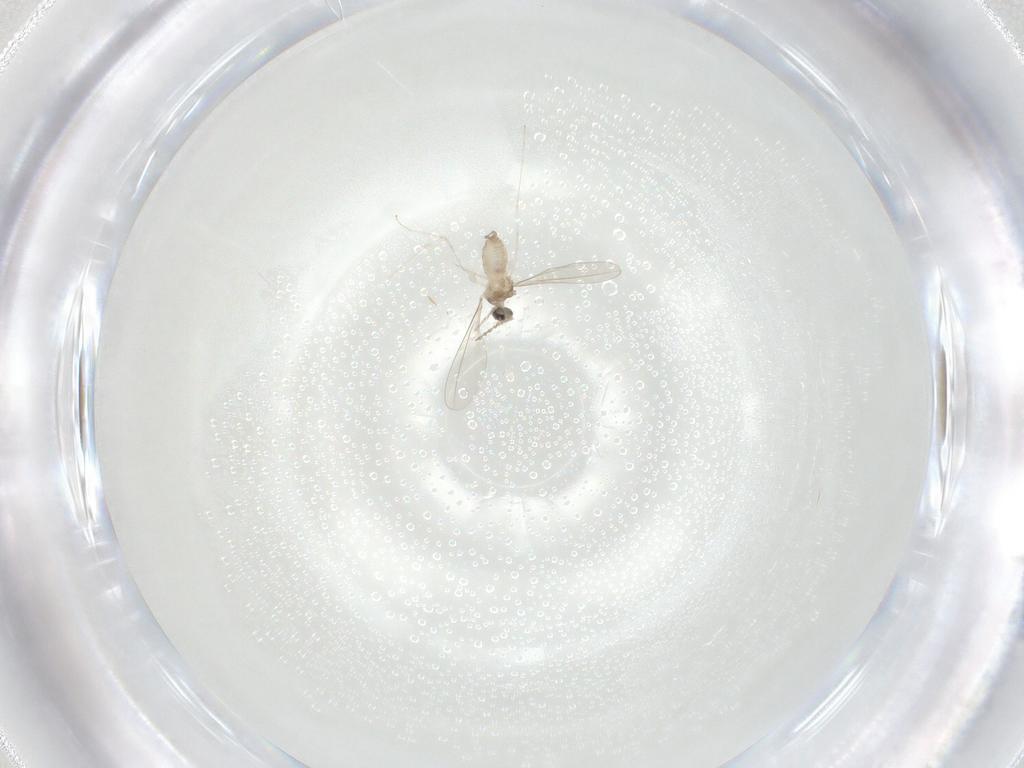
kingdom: Animalia
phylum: Arthropoda
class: Insecta
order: Diptera
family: Cecidomyiidae
